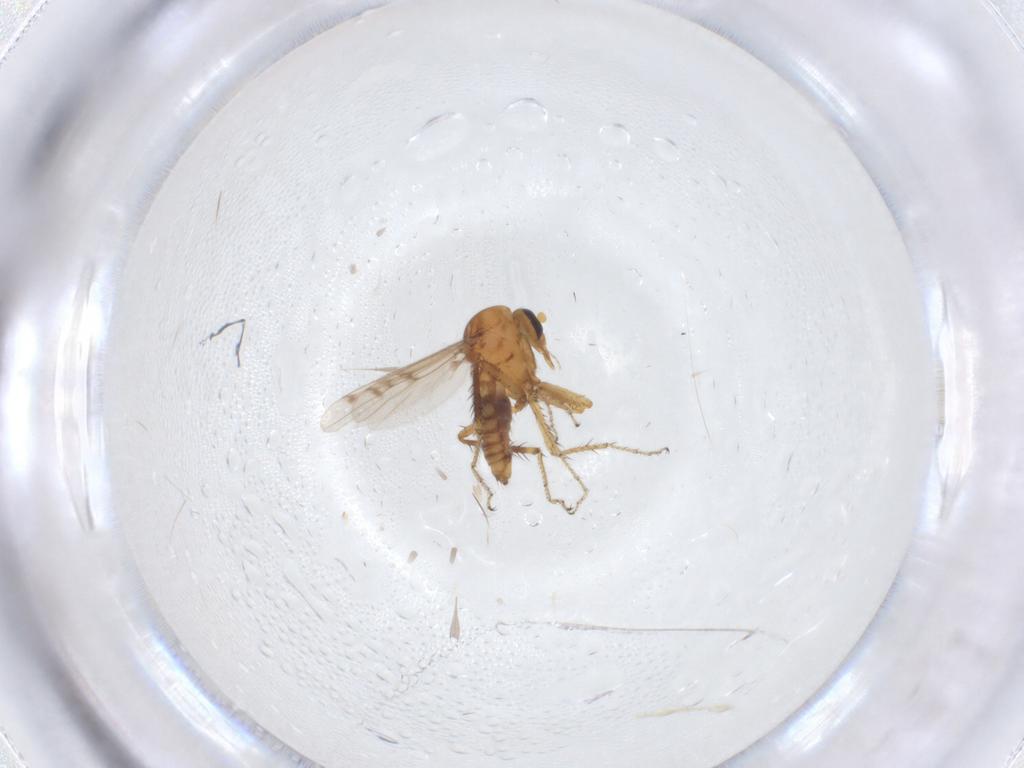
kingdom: Animalia
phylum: Arthropoda
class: Insecta
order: Diptera
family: Ceratopogonidae
